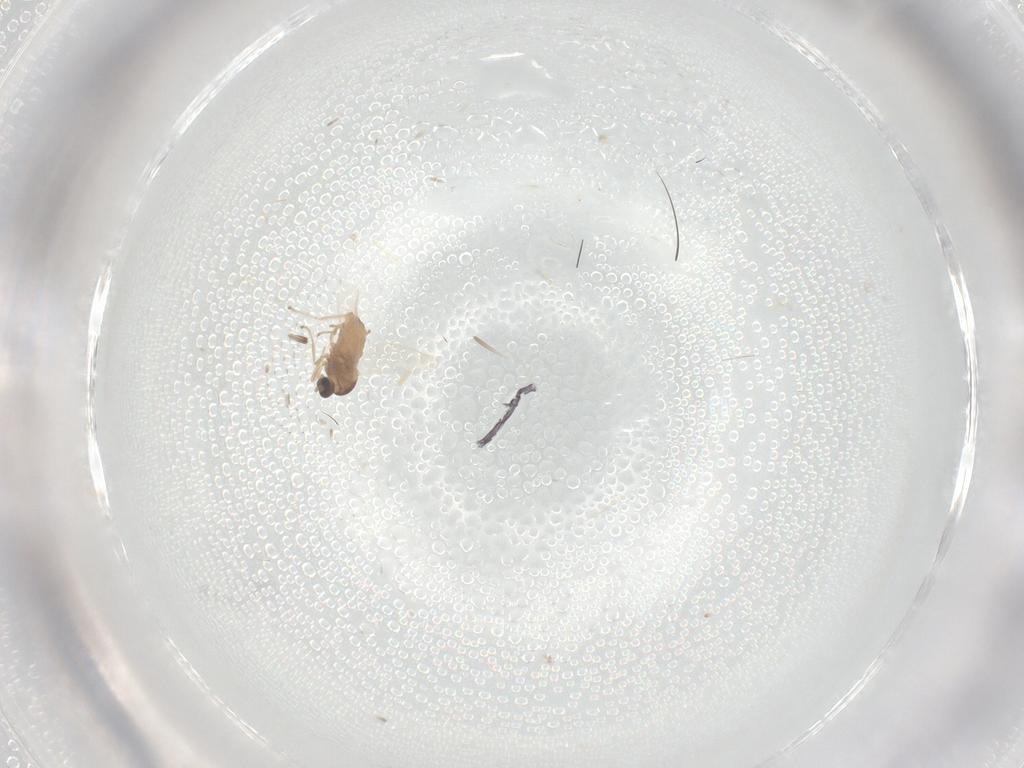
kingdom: Animalia
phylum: Arthropoda
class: Insecta
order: Diptera
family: Cecidomyiidae
